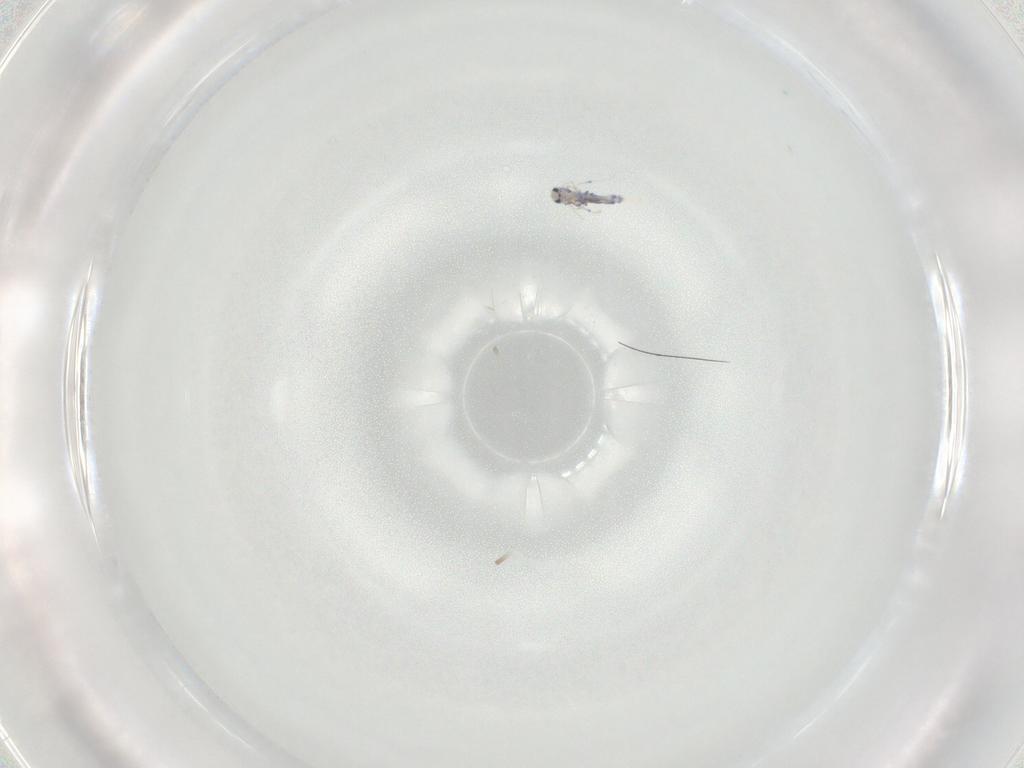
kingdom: Animalia
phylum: Arthropoda
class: Collembola
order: Entomobryomorpha
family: Entomobryidae
